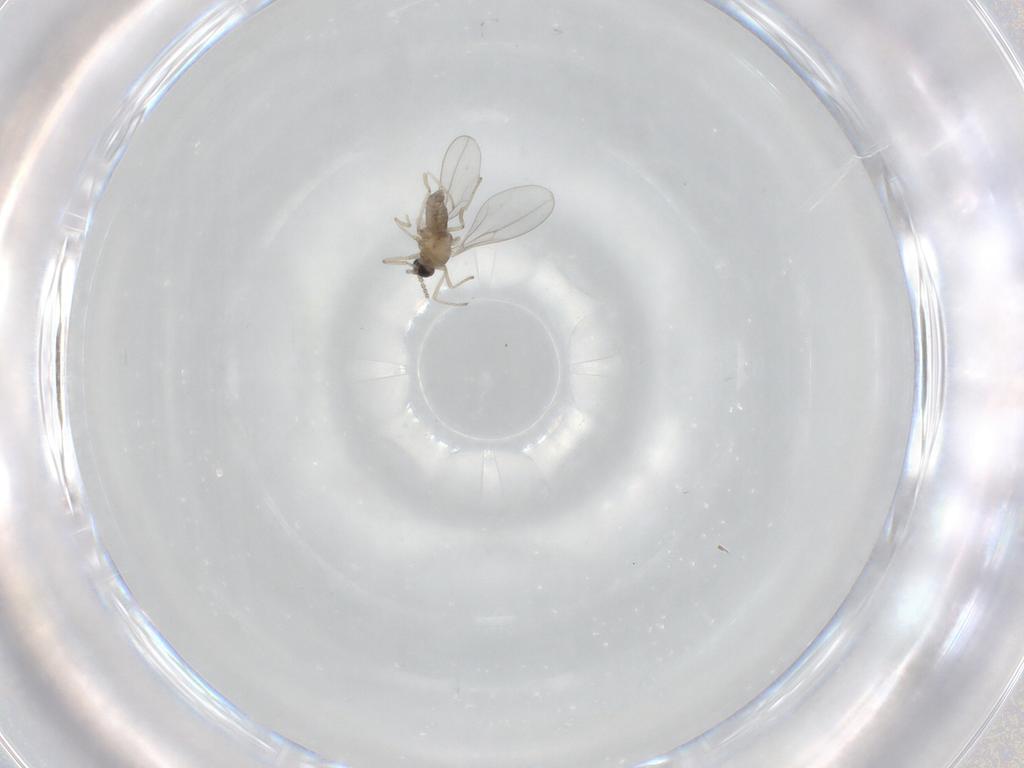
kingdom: Animalia
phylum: Arthropoda
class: Insecta
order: Diptera
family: Cecidomyiidae
